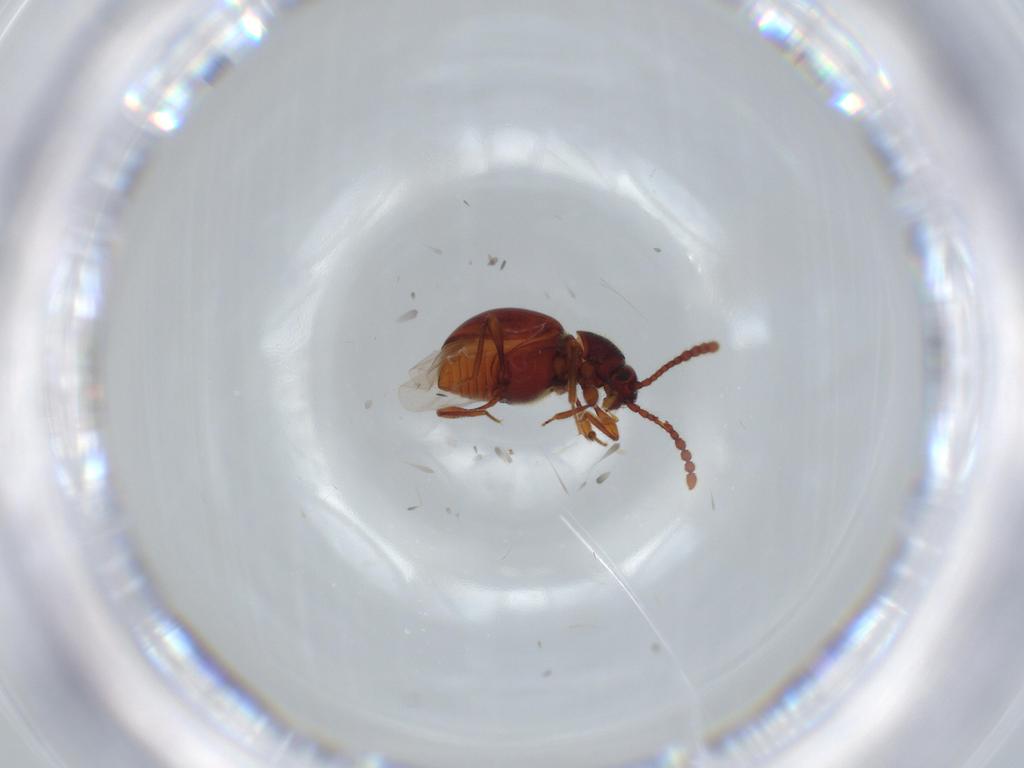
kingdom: Animalia
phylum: Arthropoda
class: Insecta
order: Coleoptera
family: Staphylinidae
